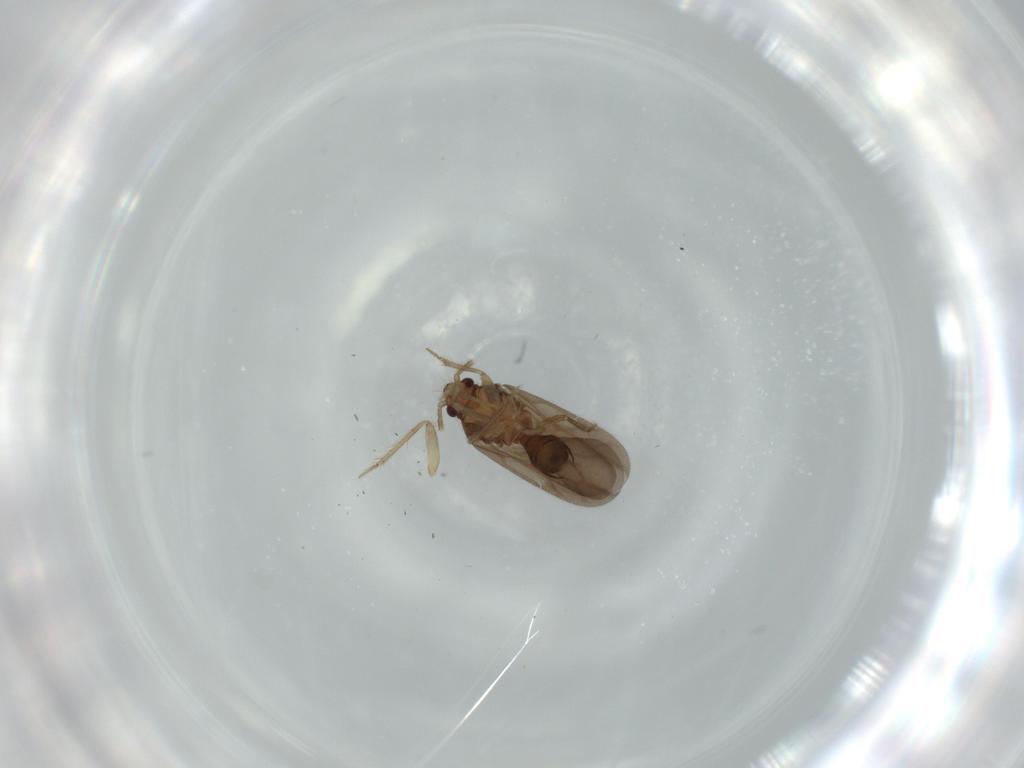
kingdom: Animalia
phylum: Arthropoda
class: Insecta
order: Hemiptera
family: Ceratocombidae
